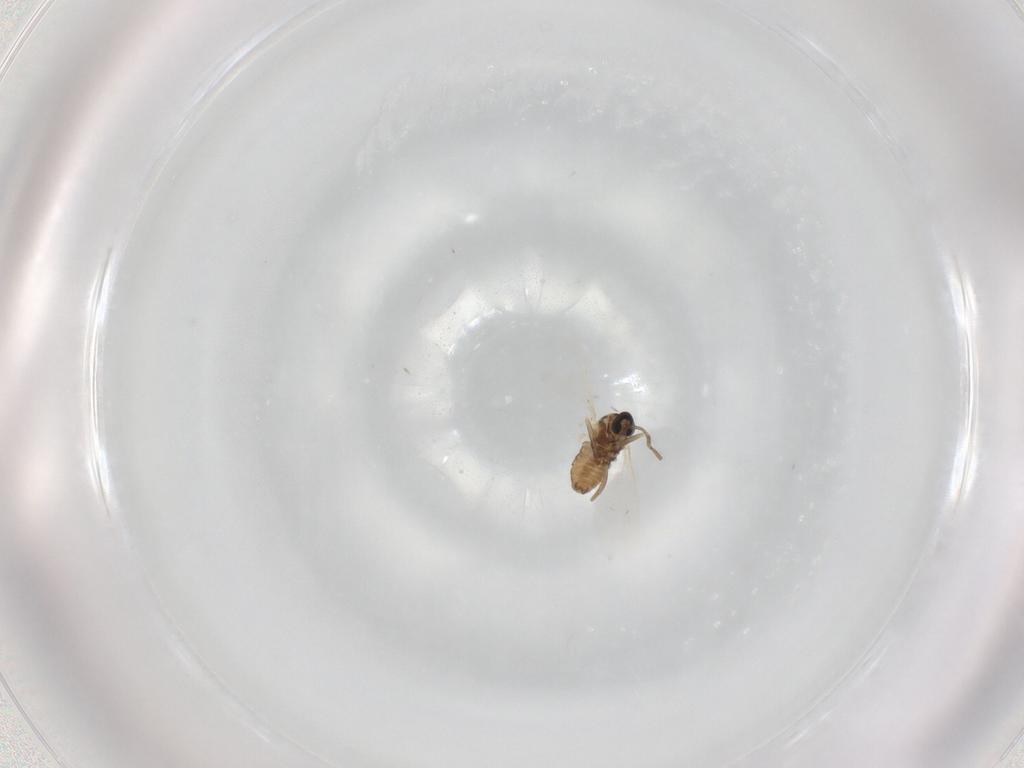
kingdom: Animalia
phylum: Arthropoda
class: Insecta
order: Diptera
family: Cecidomyiidae
